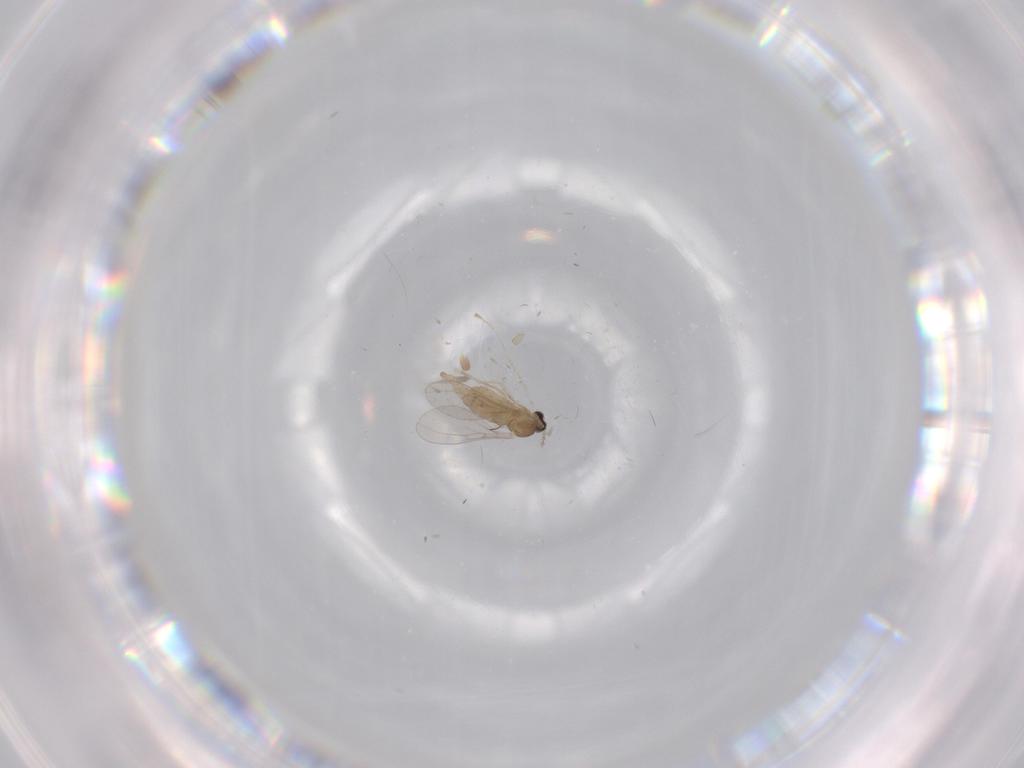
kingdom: Animalia
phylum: Arthropoda
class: Insecta
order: Diptera
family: Cecidomyiidae
